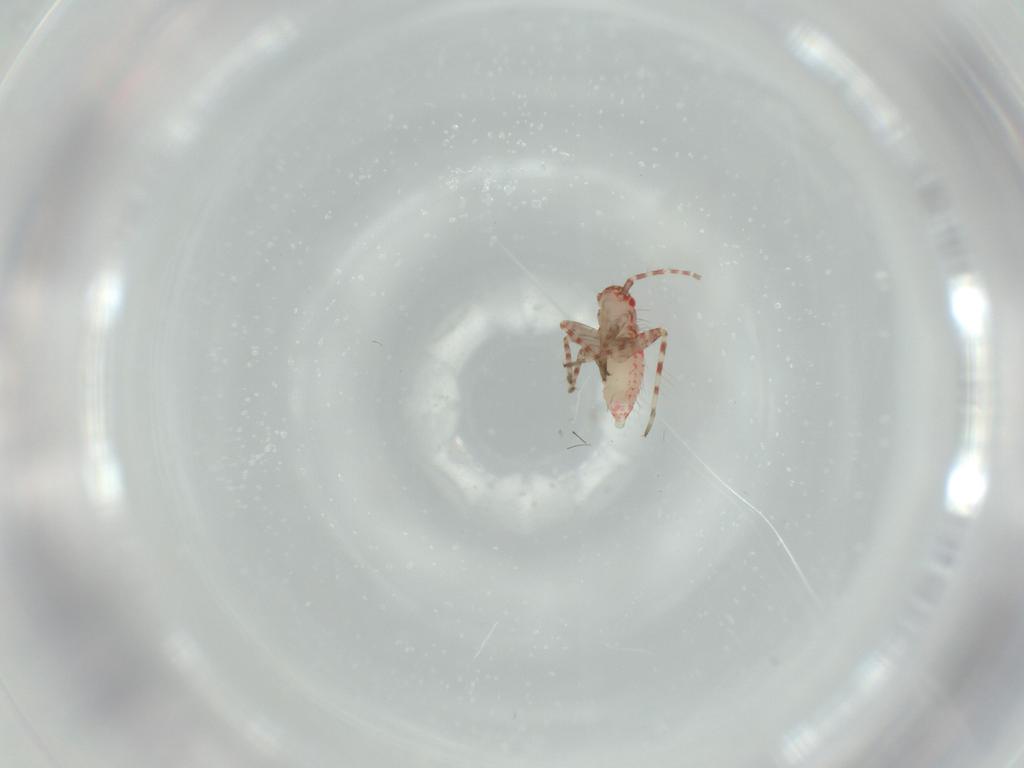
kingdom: Animalia
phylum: Arthropoda
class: Insecta
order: Hemiptera
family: Miridae
